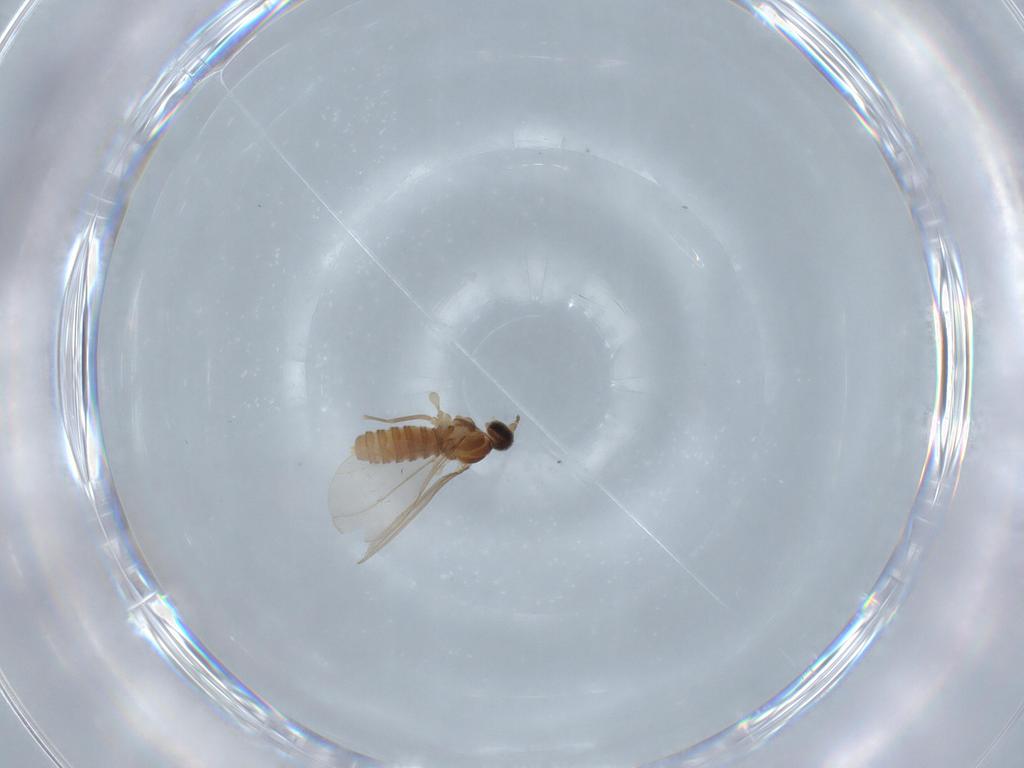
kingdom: Animalia
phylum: Arthropoda
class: Insecta
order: Diptera
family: Cecidomyiidae
